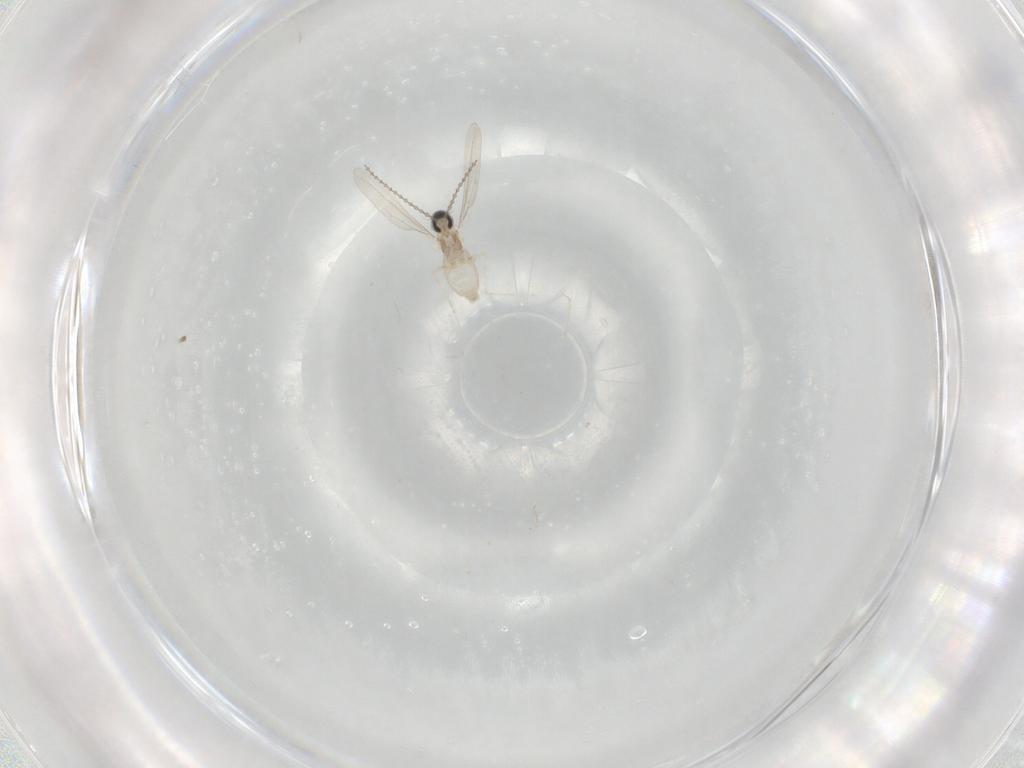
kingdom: Animalia
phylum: Arthropoda
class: Insecta
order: Diptera
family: Cecidomyiidae
